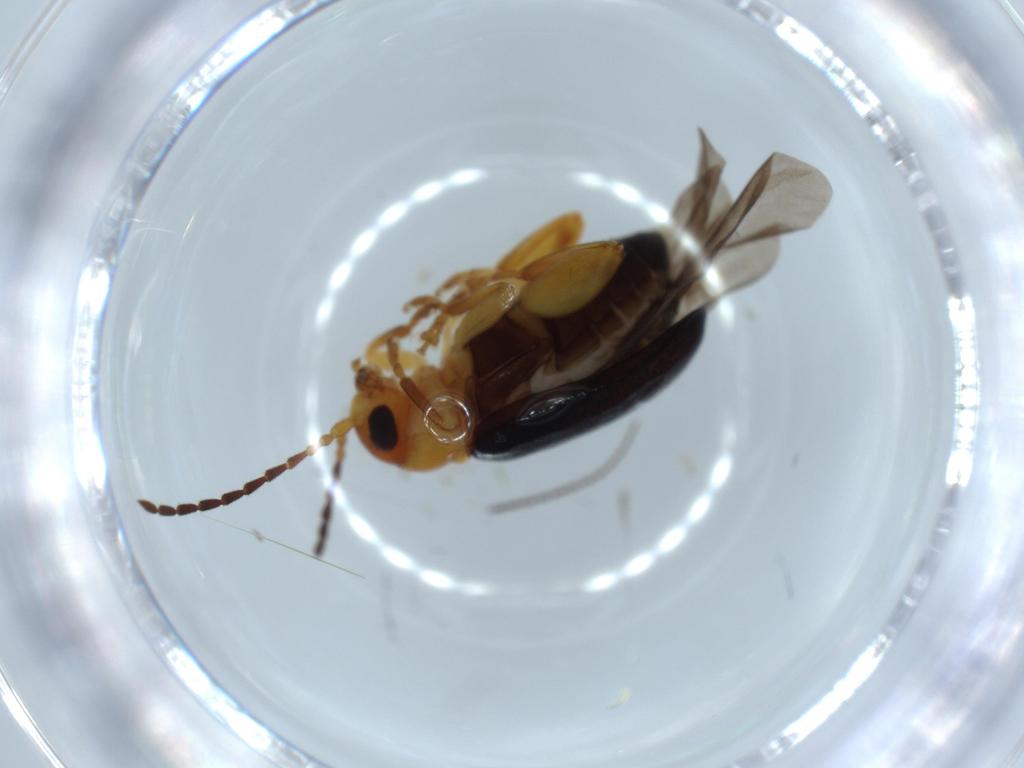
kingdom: Animalia
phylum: Arthropoda
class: Insecta
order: Coleoptera
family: Chrysomelidae
